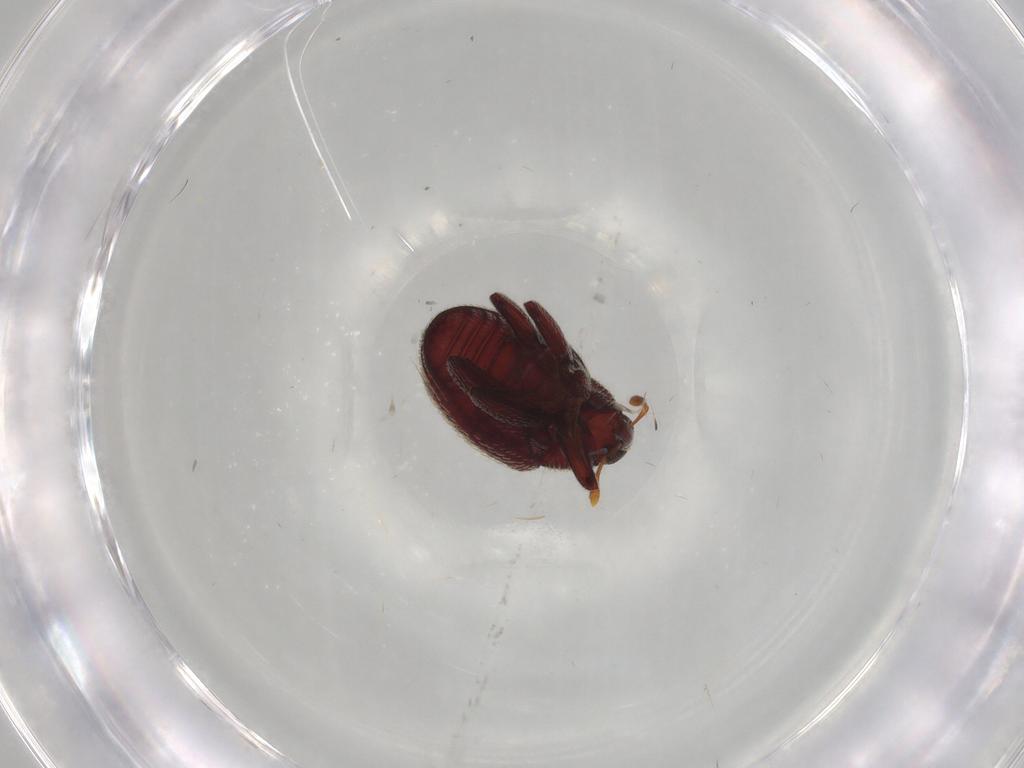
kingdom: Animalia
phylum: Arthropoda
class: Insecta
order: Coleoptera
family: Curculionidae
